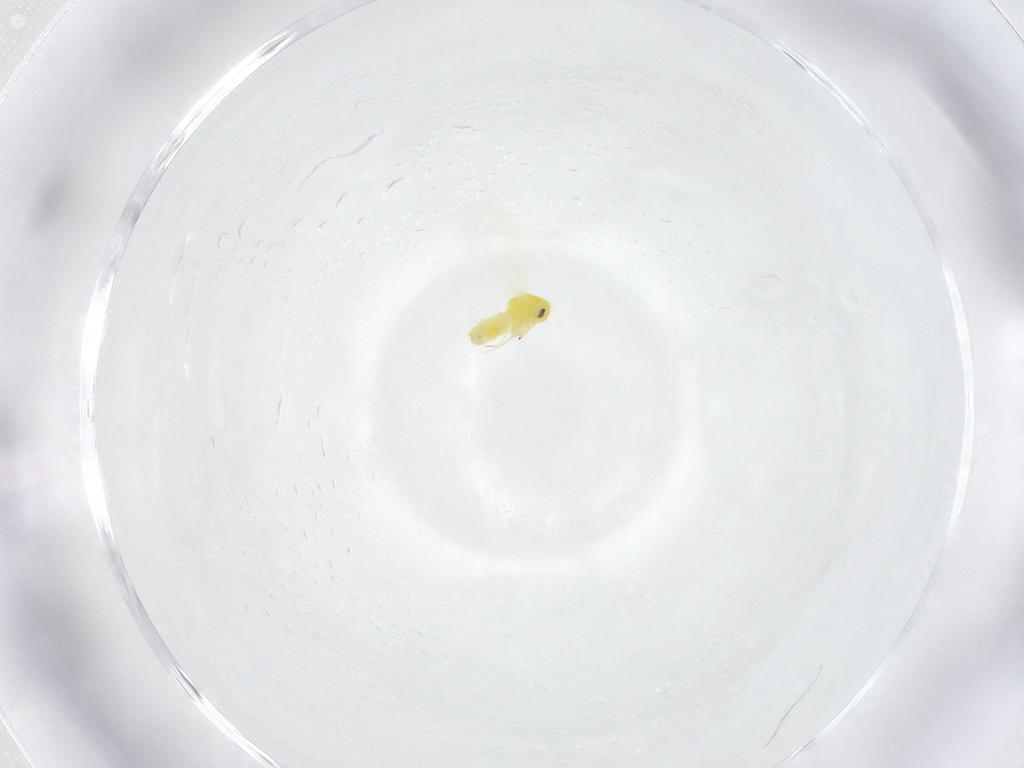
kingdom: Animalia
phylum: Arthropoda
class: Insecta
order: Hemiptera
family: Aleyrodidae
